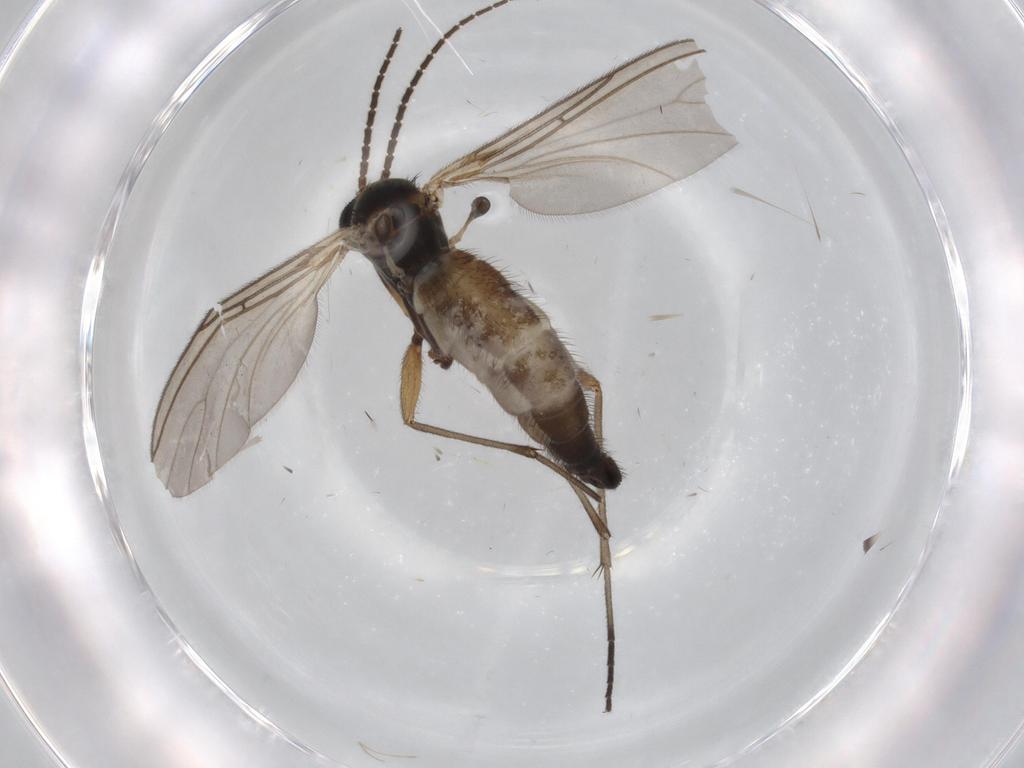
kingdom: Animalia
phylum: Arthropoda
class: Insecta
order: Diptera
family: Sciaridae
